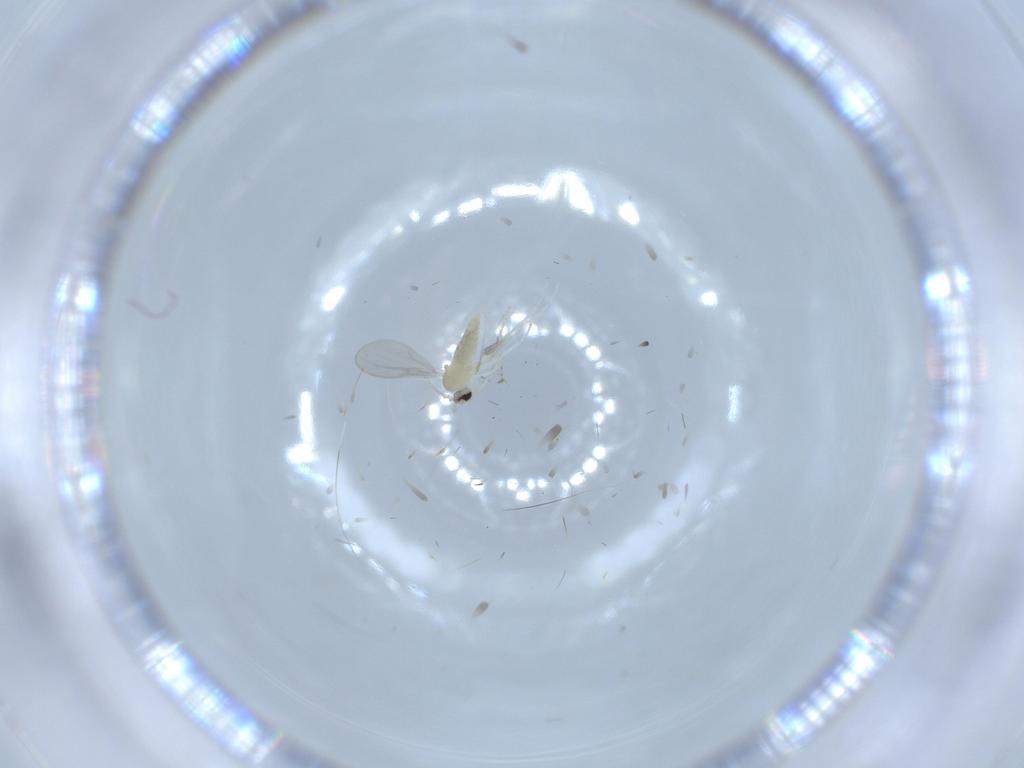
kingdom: Animalia
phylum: Arthropoda
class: Insecta
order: Diptera
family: Cecidomyiidae
